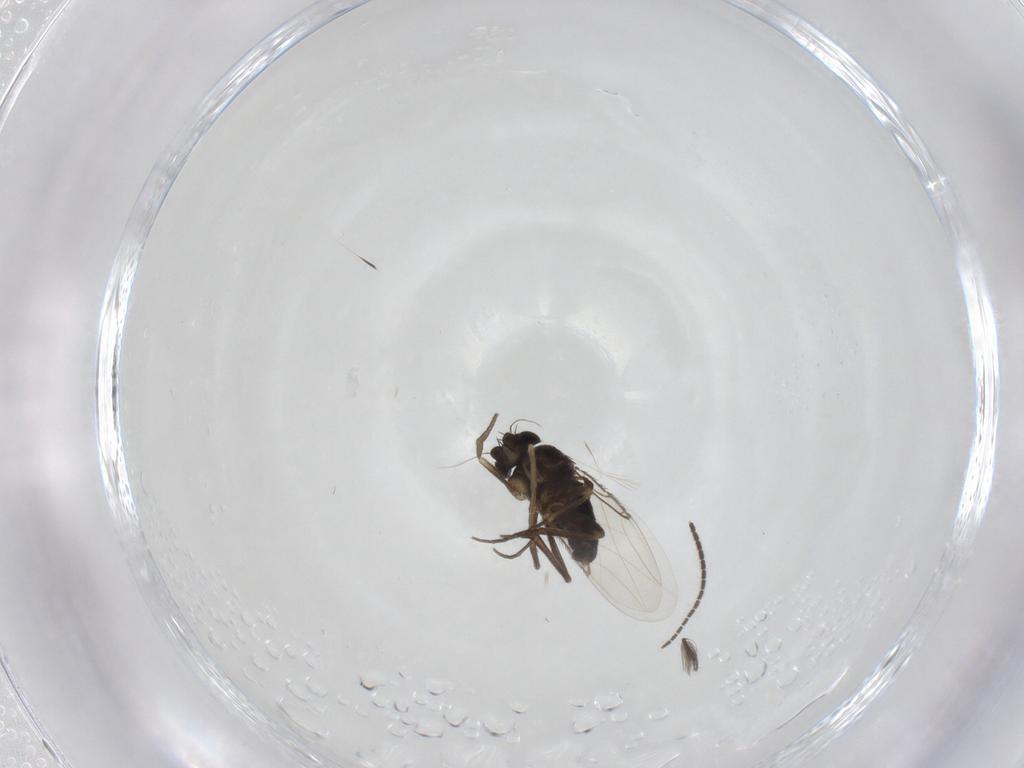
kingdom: Animalia
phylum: Arthropoda
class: Insecta
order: Diptera
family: Phoridae
